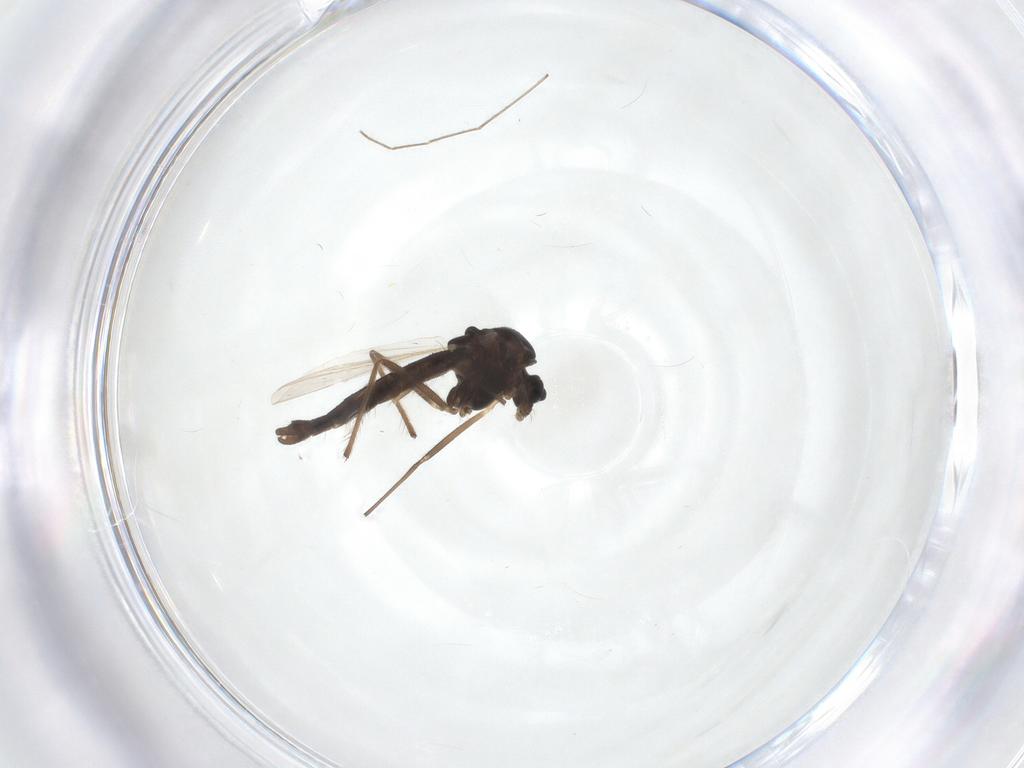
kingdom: Animalia
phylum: Arthropoda
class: Insecta
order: Diptera
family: Chironomidae
